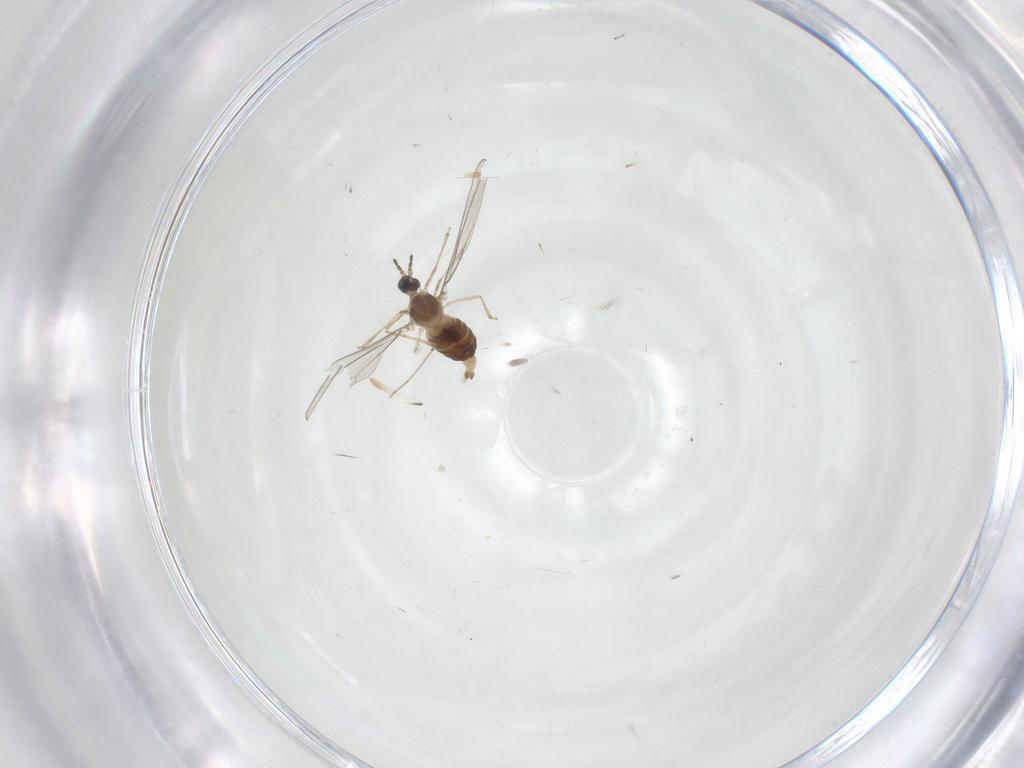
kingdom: Animalia
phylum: Arthropoda
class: Insecta
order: Diptera
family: Cecidomyiidae
